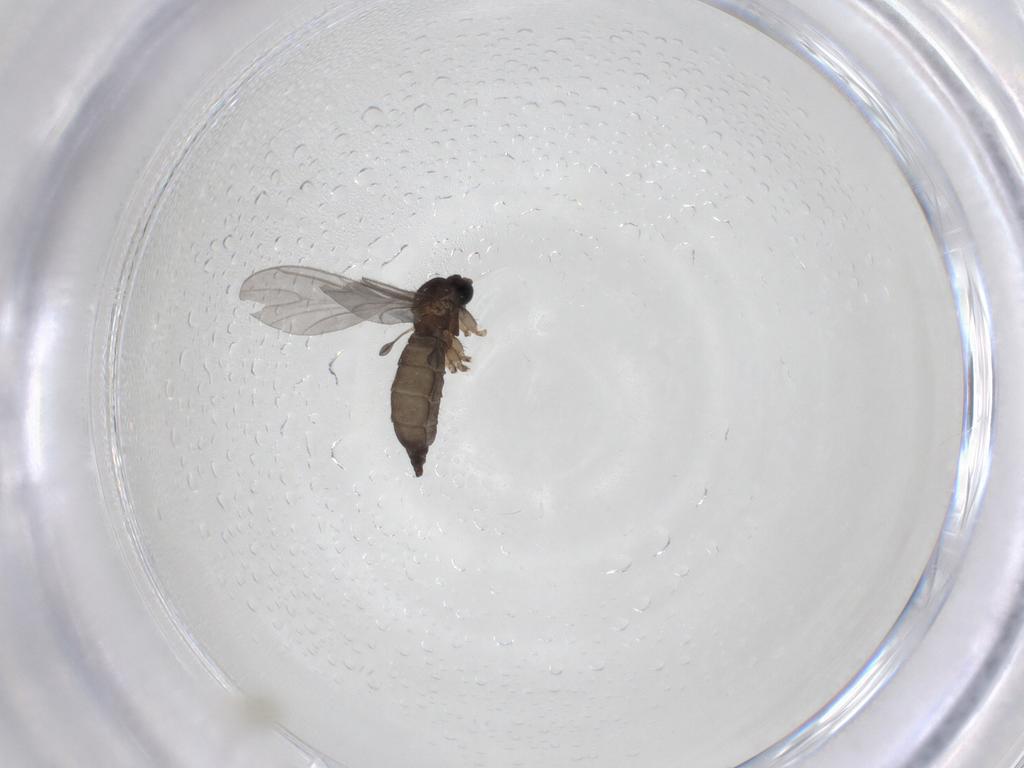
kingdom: Animalia
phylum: Arthropoda
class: Insecta
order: Diptera
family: Sciaridae
